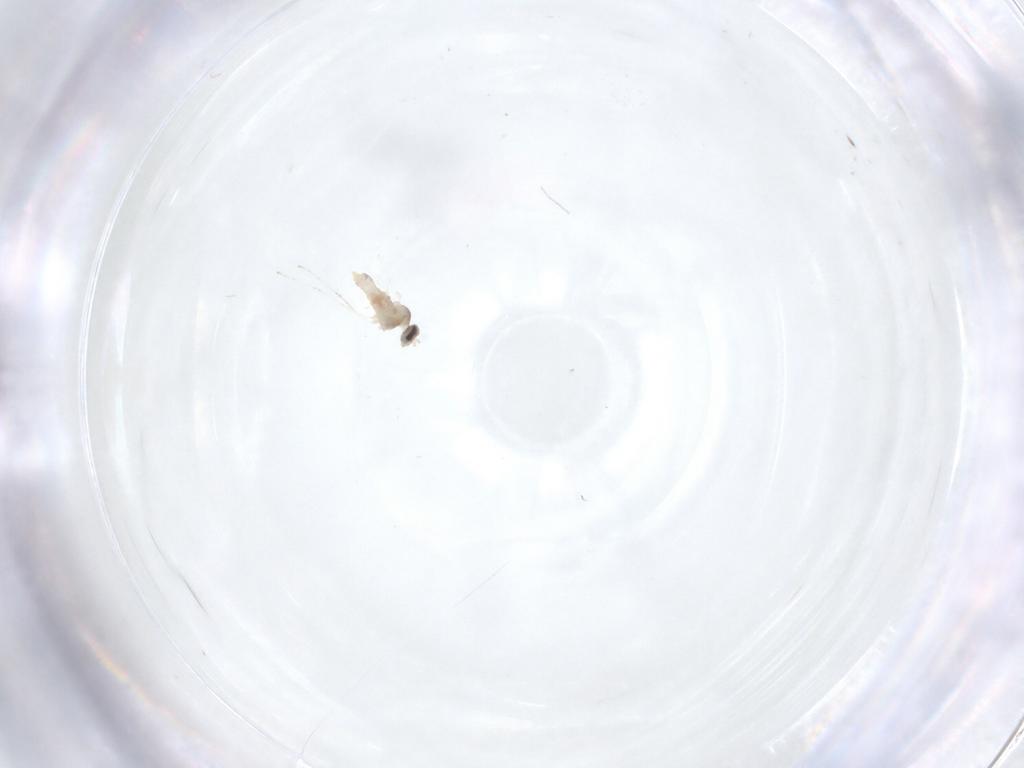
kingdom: Animalia
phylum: Arthropoda
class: Insecta
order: Diptera
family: Cecidomyiidae
